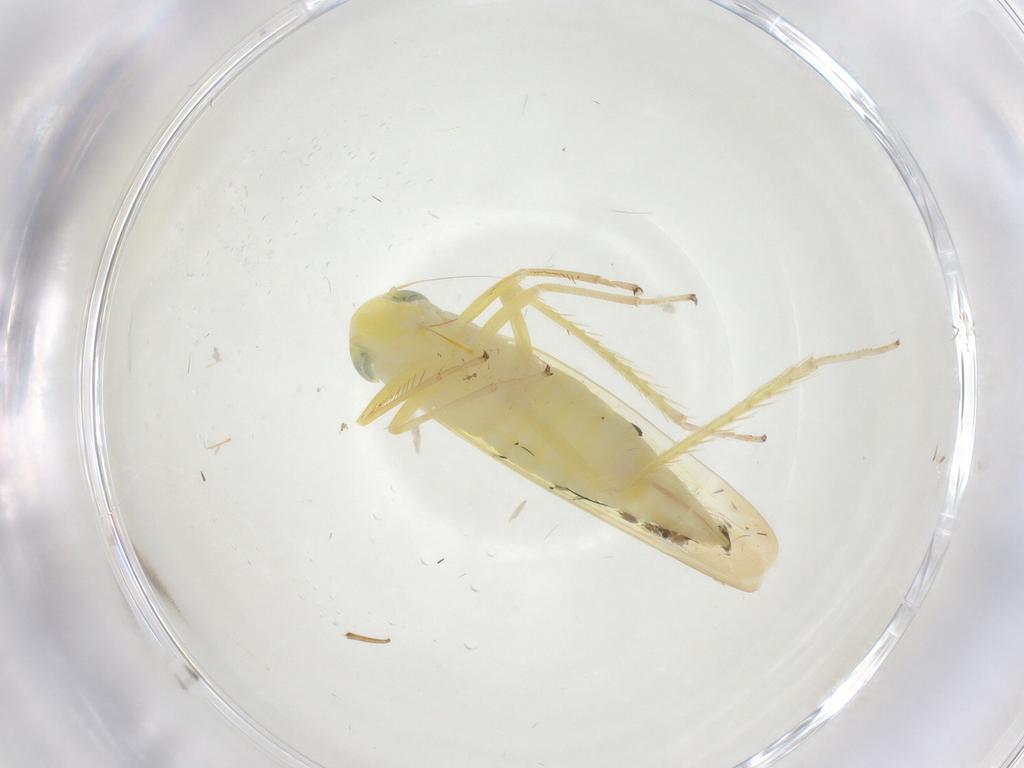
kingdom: Animalia
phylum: Arthropoda
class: Insecta
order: Hemiptera
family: Cicadellidae
